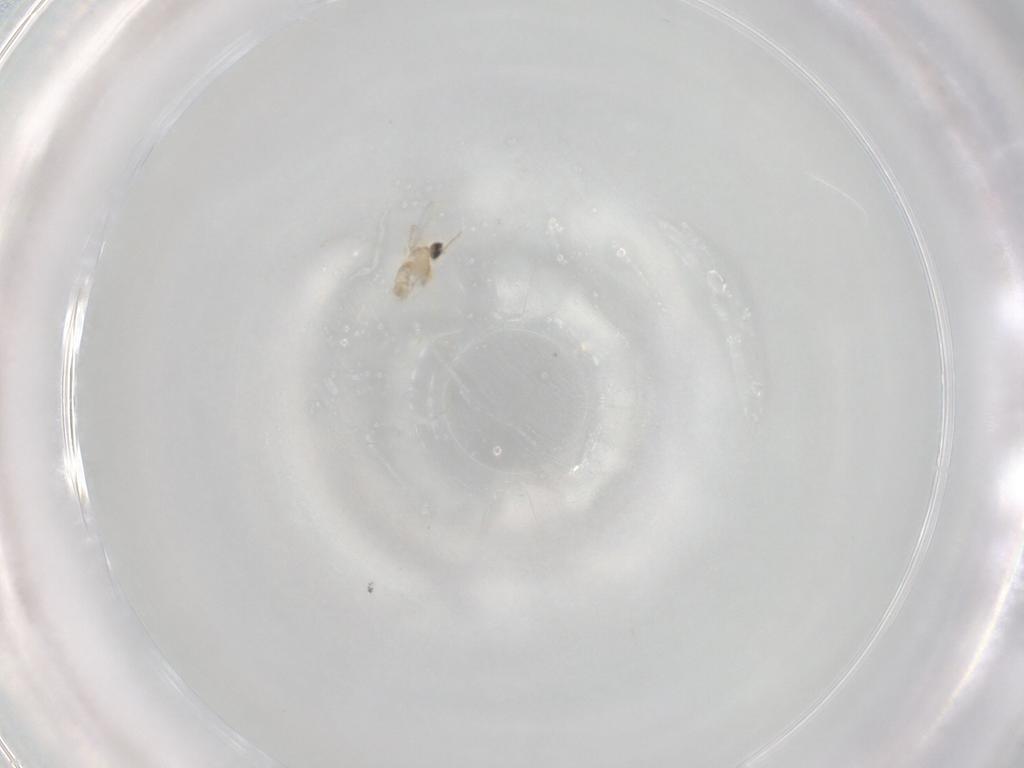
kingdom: Animalia
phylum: Arthropoda
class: Insecta
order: Diptera
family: Cecidomyiidae
